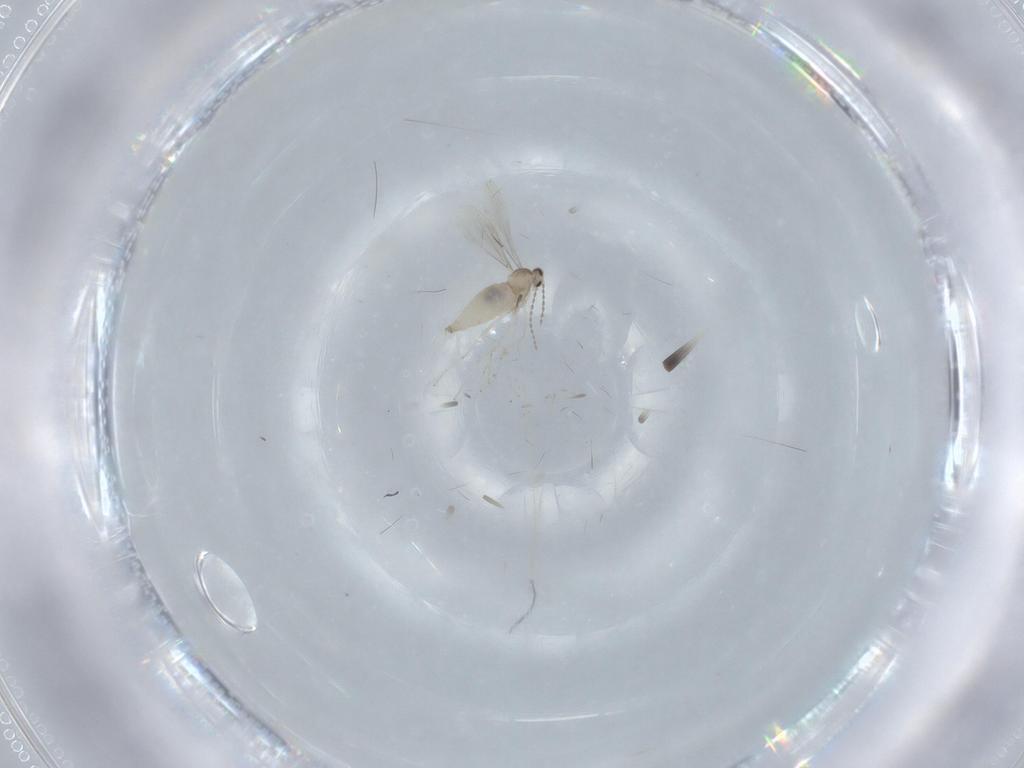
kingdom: Animalia
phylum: Arthropoda
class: Insecta
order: Diptera
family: Cecidomyiidae
